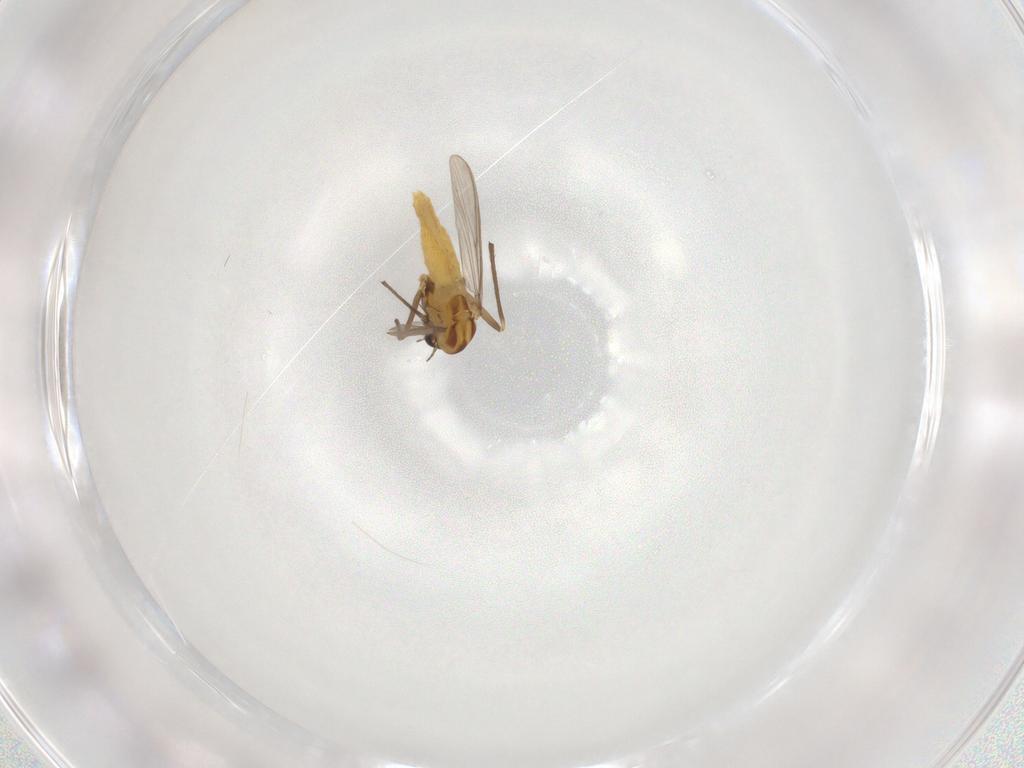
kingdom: Animalia
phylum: Arthropoda
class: Insecta
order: Diptera
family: Chironomidae
